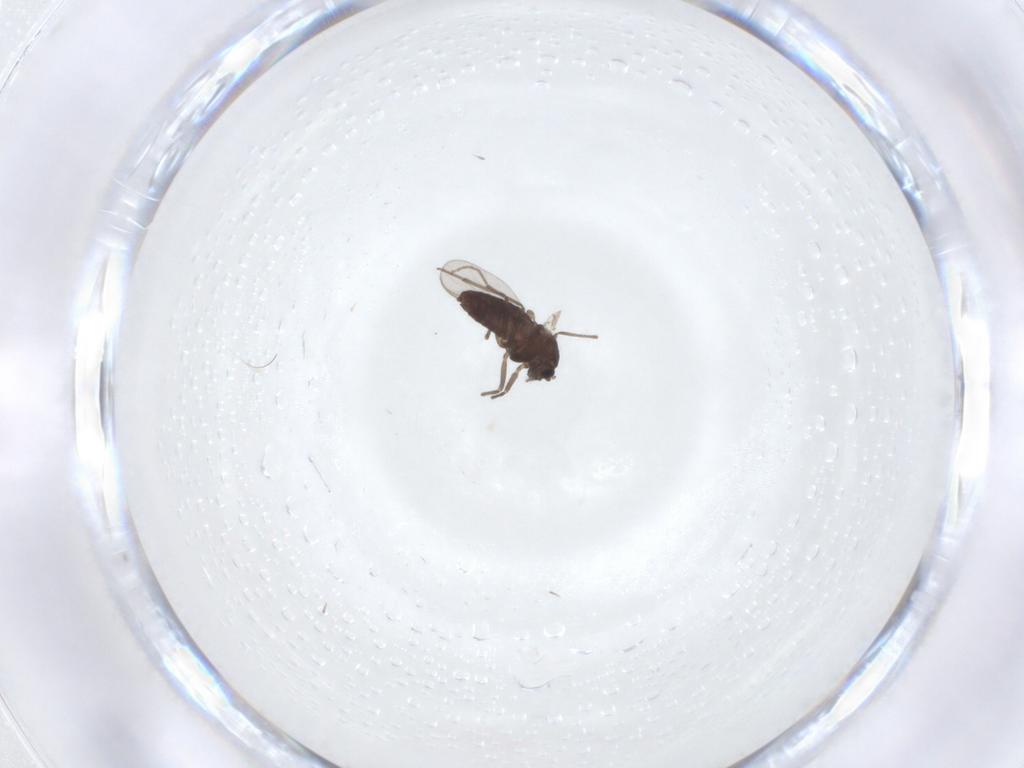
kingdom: Animalia
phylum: Arthropoda
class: Insecta
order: Diptera
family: Chironomidae
